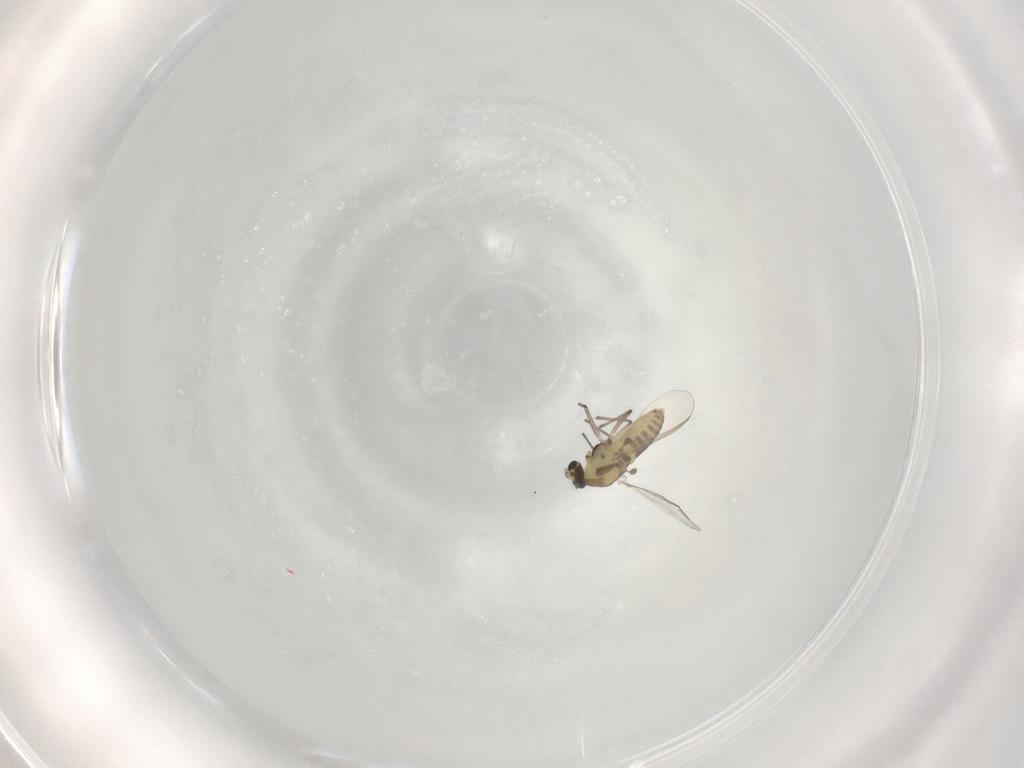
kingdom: Animalia
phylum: Arthropoda
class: Insecta
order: Diptera
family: Chironomidae
